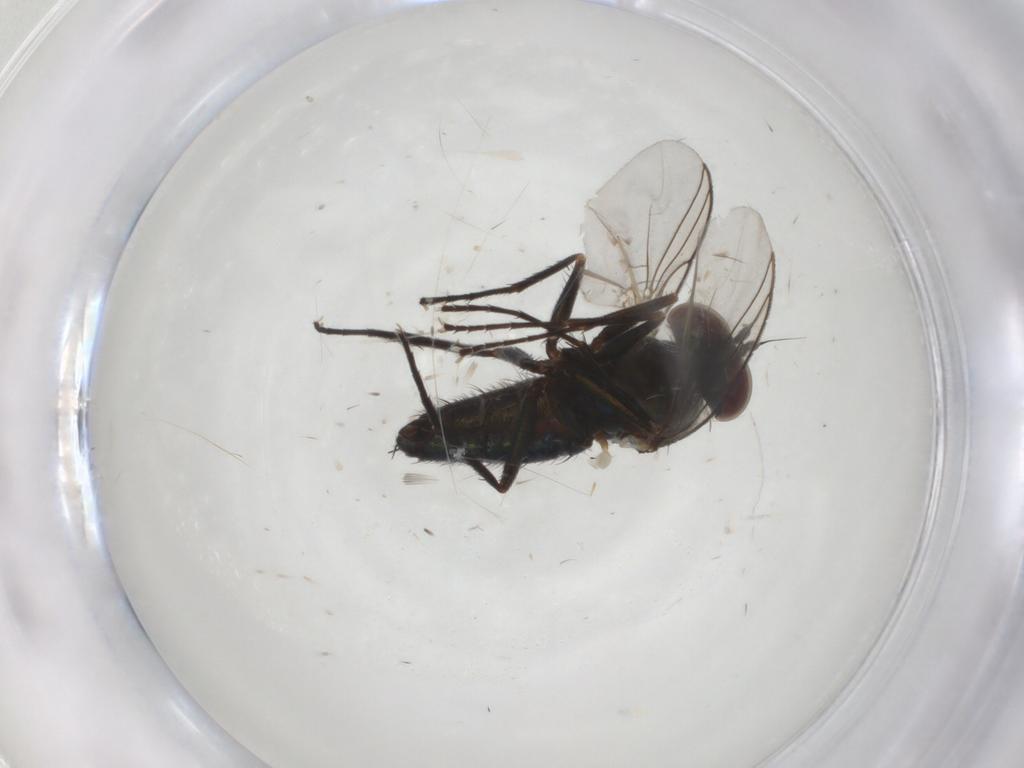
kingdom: Animalia
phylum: Arthropoda
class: Insecta
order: Diptera
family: Dolichopodidae
